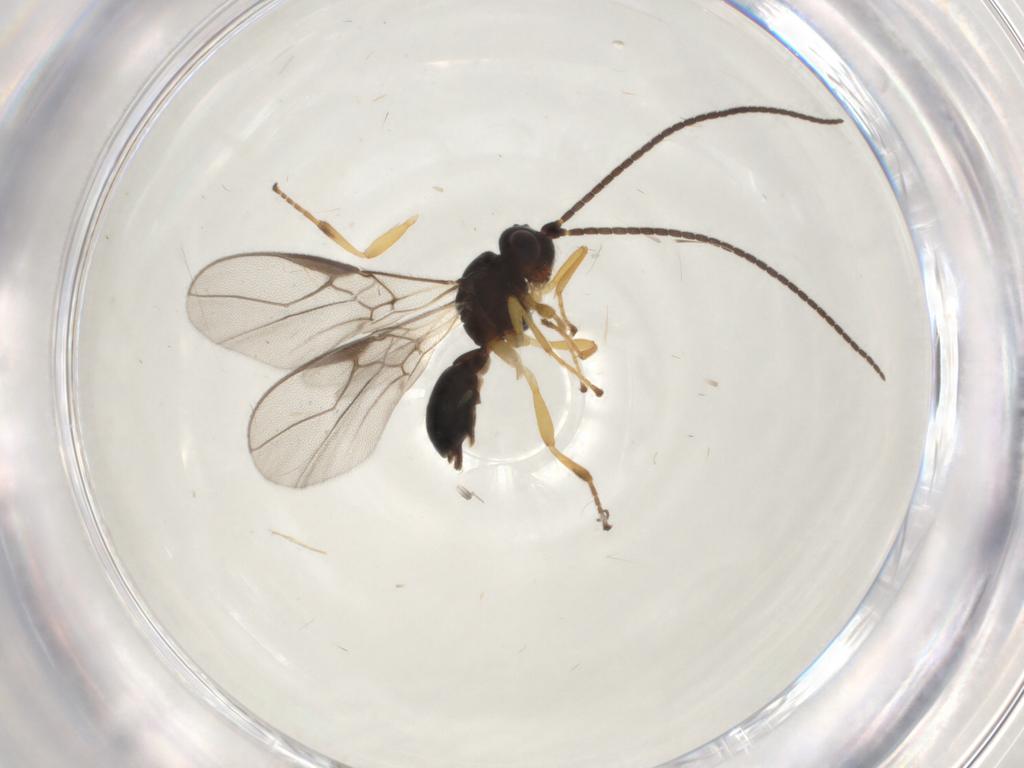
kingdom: Animalia
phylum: Arthropoda
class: Insecta
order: Hymenoptera
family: Braconidae
